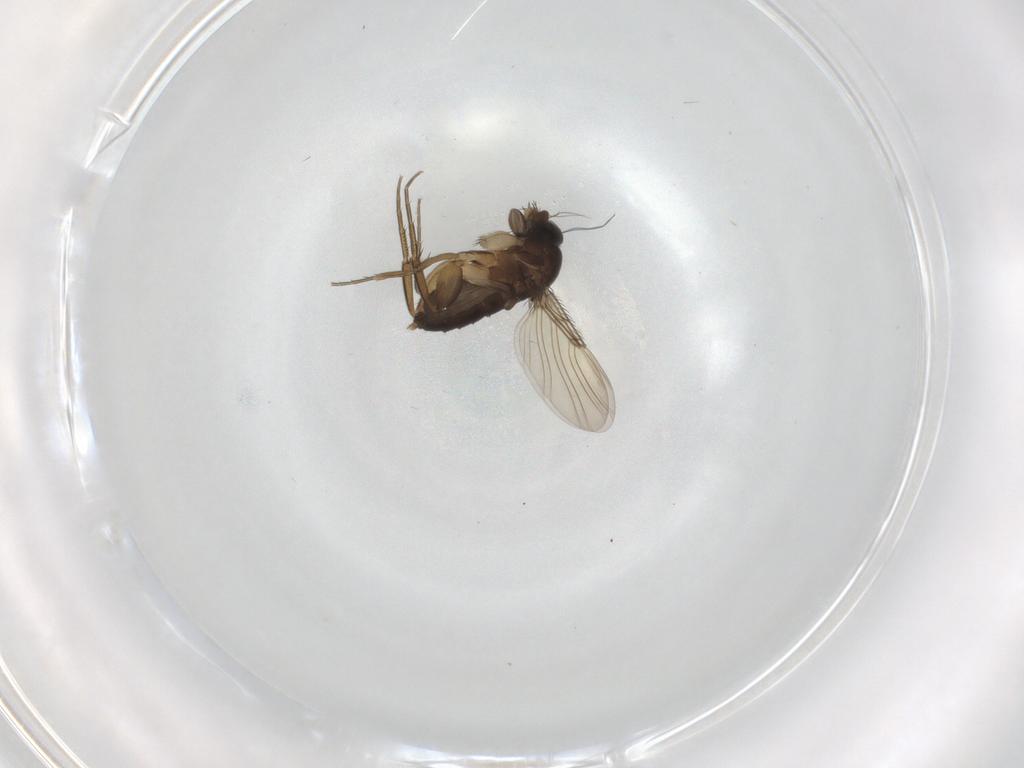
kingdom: Animalia
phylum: Arthropoda
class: Insecta
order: Diptera
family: Phoridae
